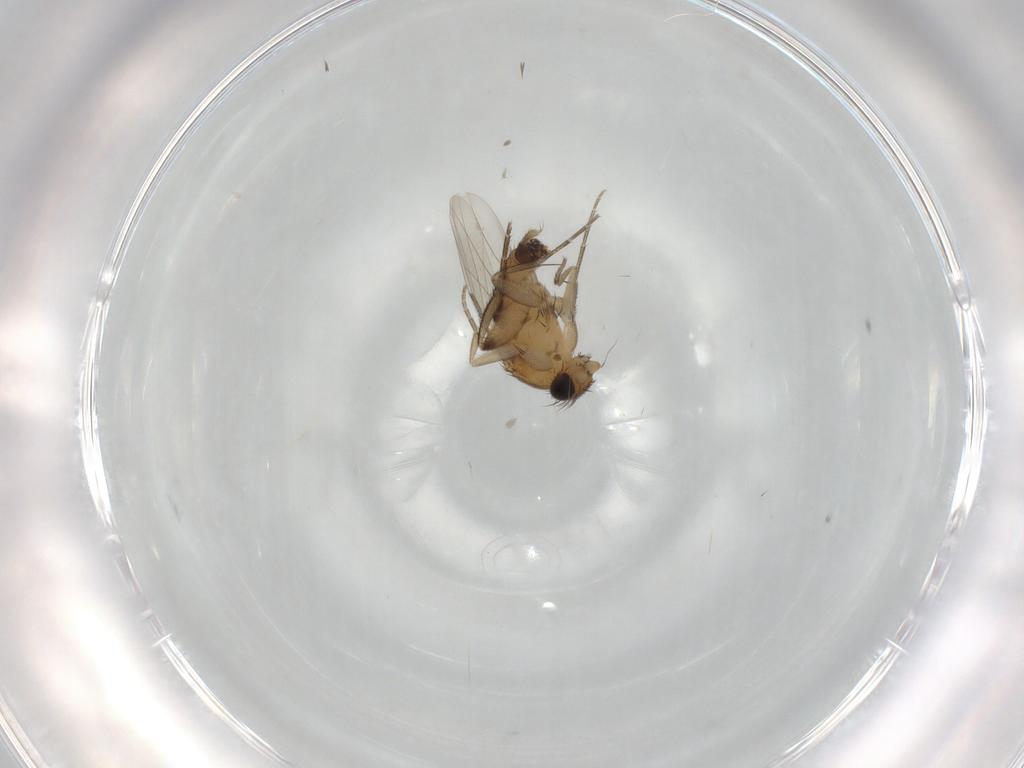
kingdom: Animalia
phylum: Arthropoda
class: Insecta
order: Diptera
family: Phoridae
